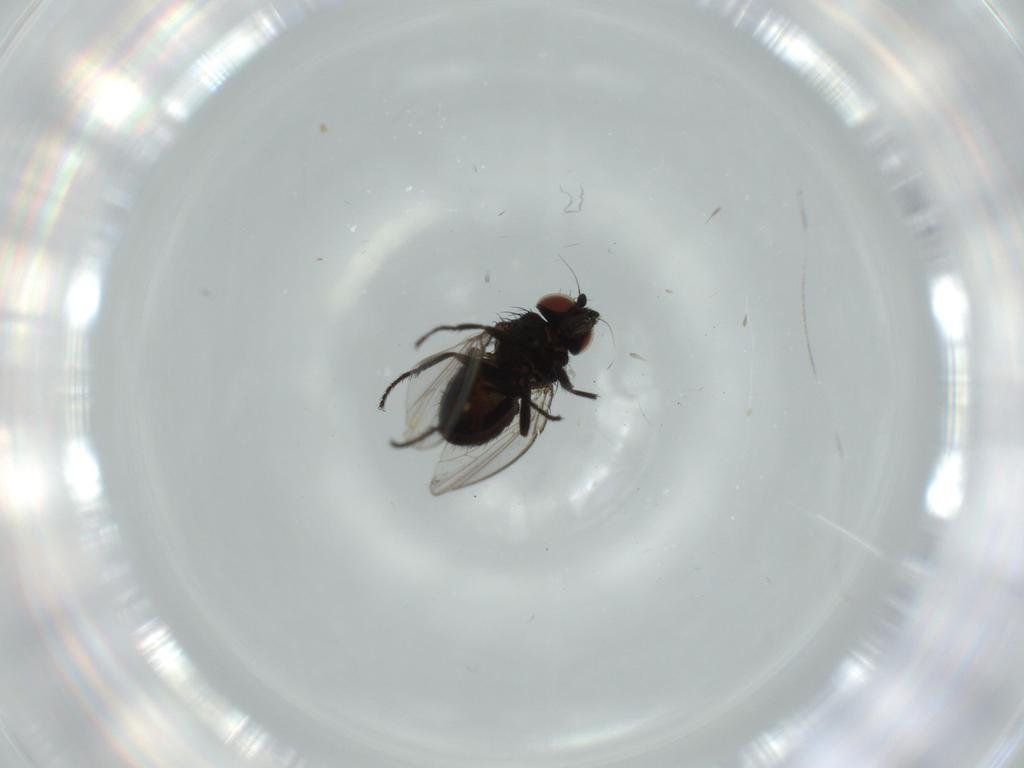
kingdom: Animalia
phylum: Arthropoda
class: Insecta
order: Diptera
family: Milichiidae
